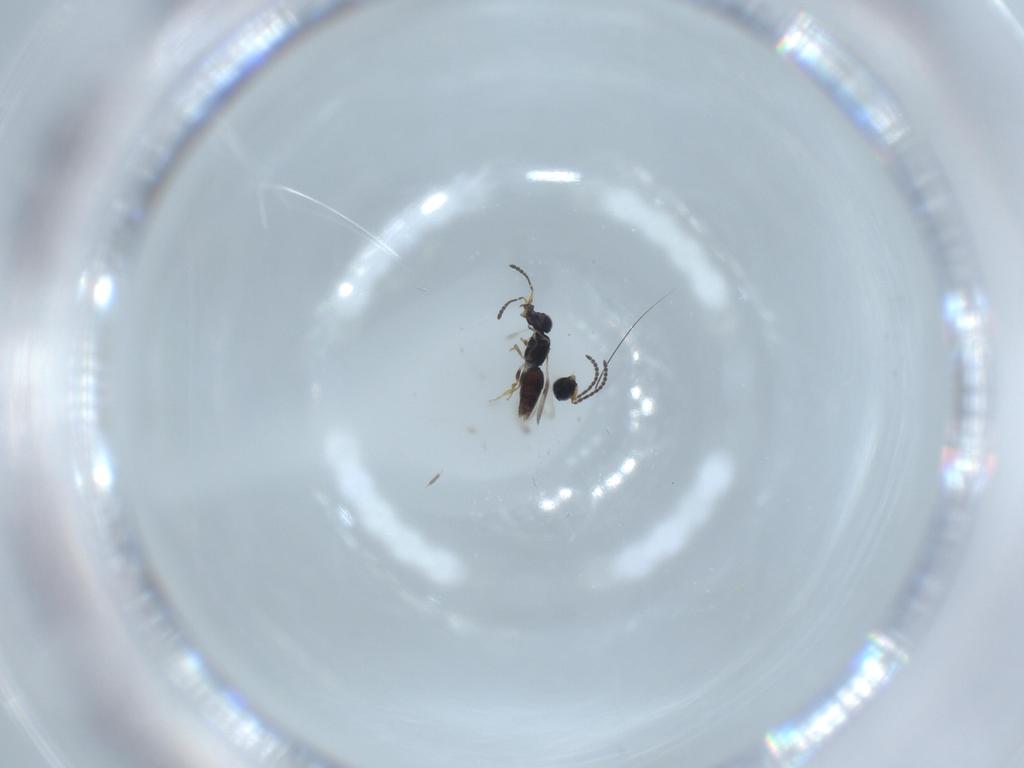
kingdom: Animalia
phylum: Arthropoda
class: Insecta
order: Hymenoptera
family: Scelionidae
